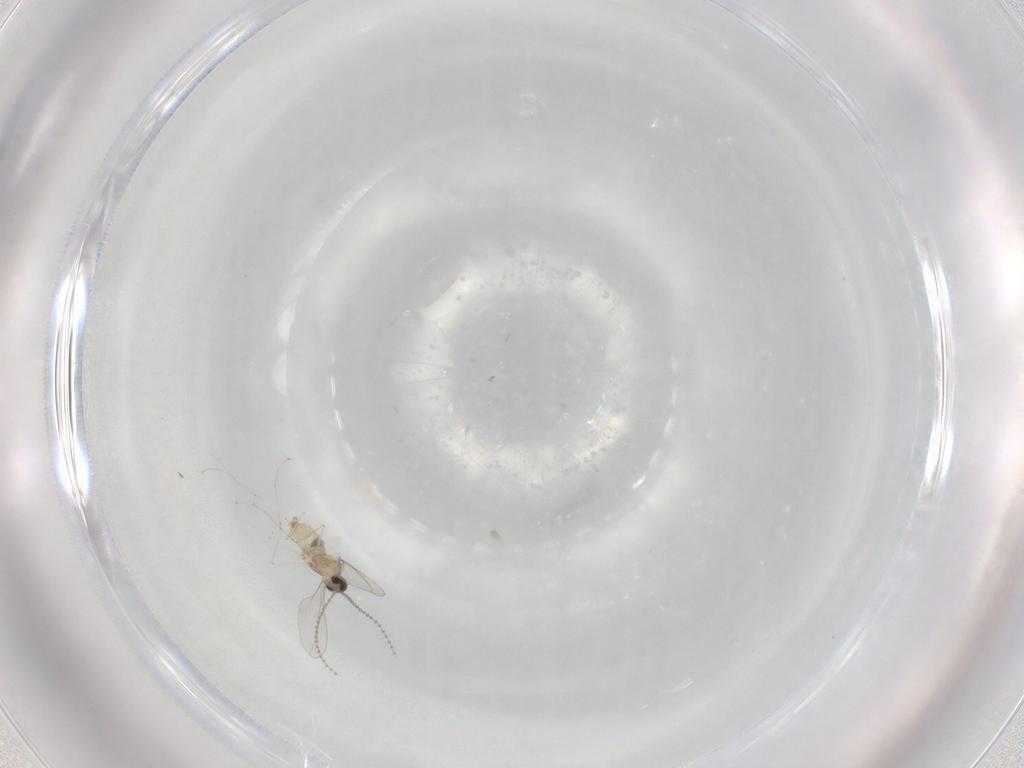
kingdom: Animalia
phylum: Arthropoda
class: Insecta
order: Diptera
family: Cecidomyiidae
